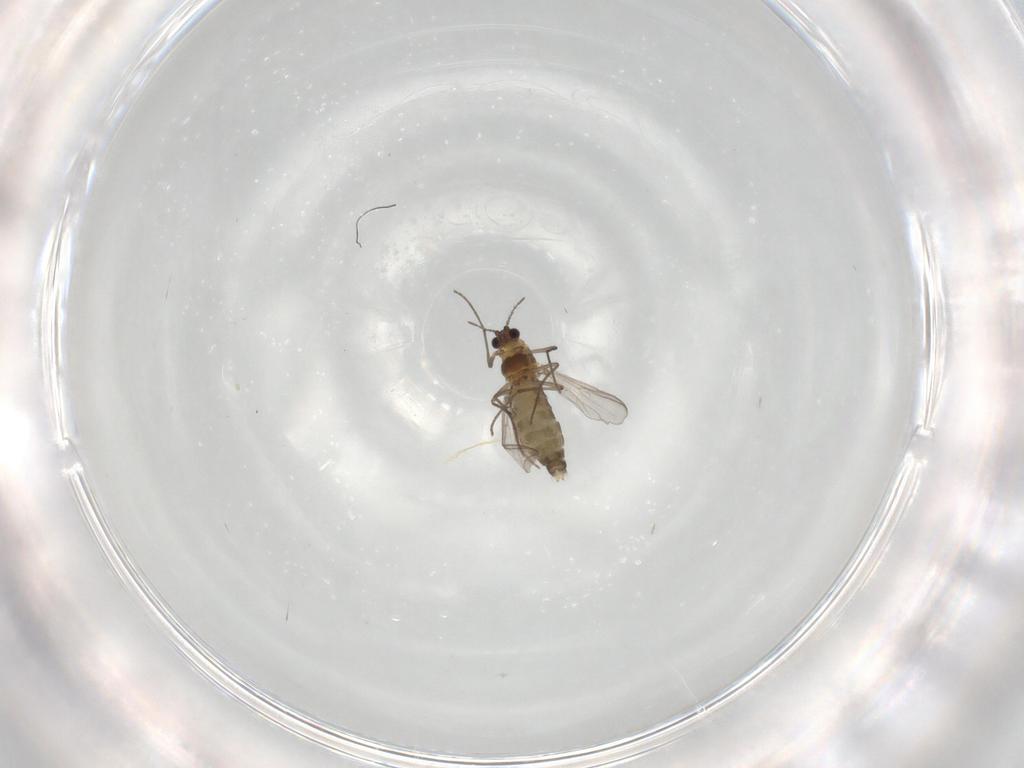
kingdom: Animalia
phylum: Arthropoda
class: Insecta
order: Diptera
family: Chironomidae
